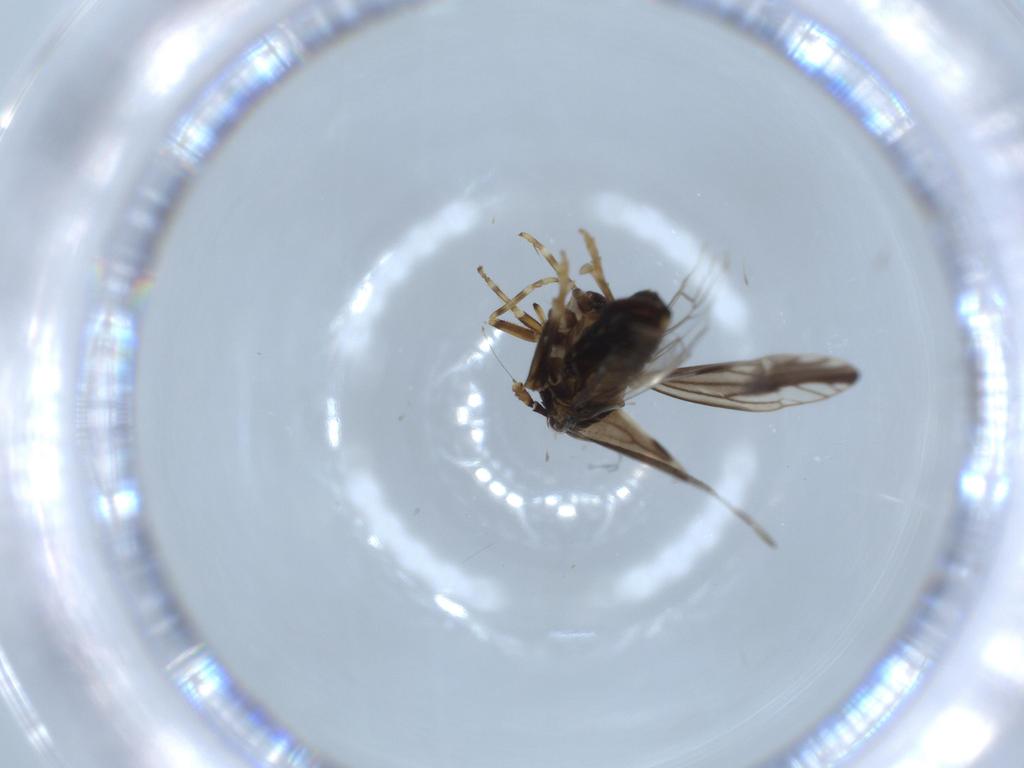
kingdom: Animalia
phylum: Arthropoda
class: Insecta
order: Hemiptera
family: Delphacidae
